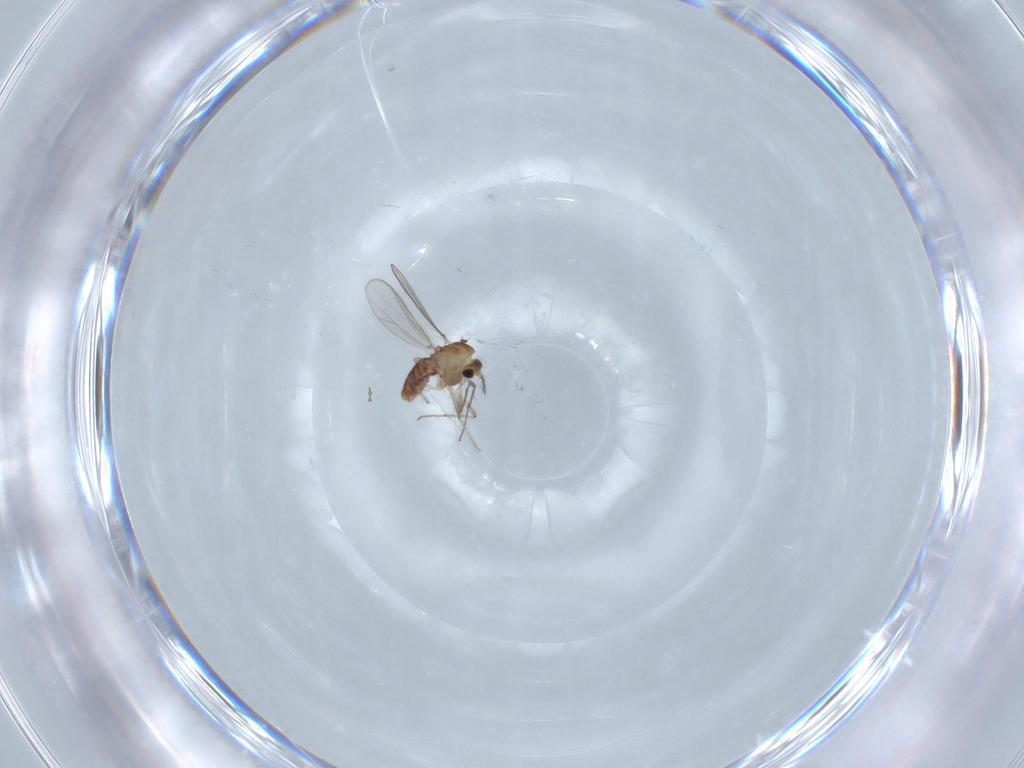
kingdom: Animalia
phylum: Arthropoda
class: Insecta
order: Diptera
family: Chironomidae
